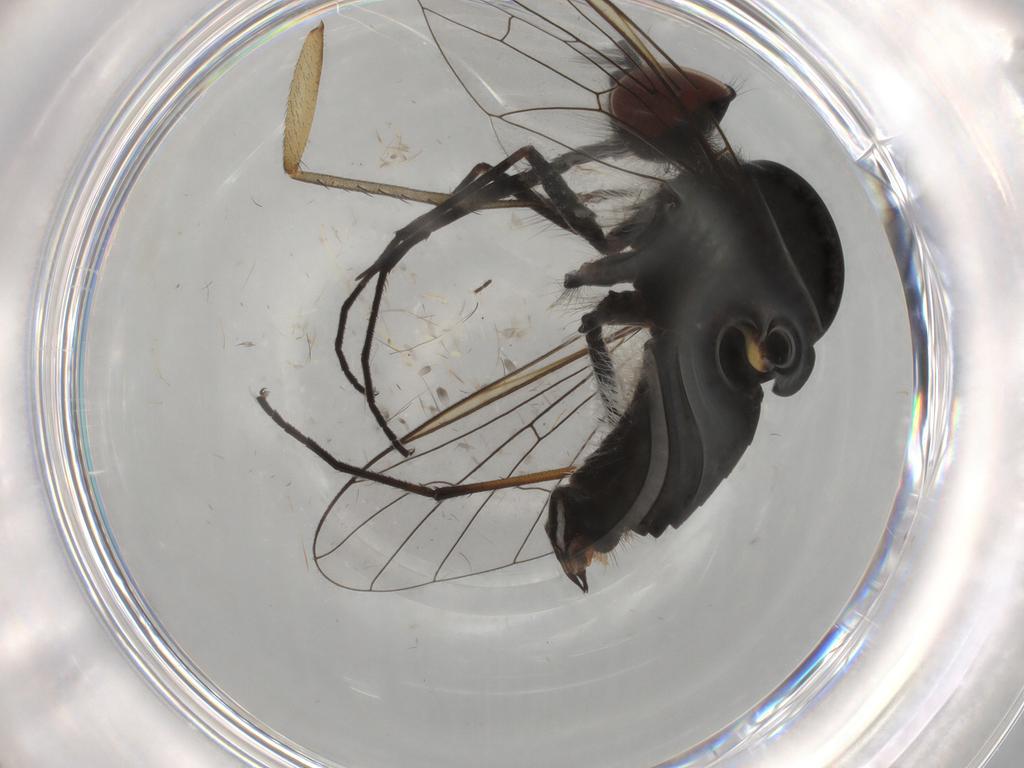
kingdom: Animalia
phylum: Arthropoda
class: Insecta
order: Diptera
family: Bombyliidae
